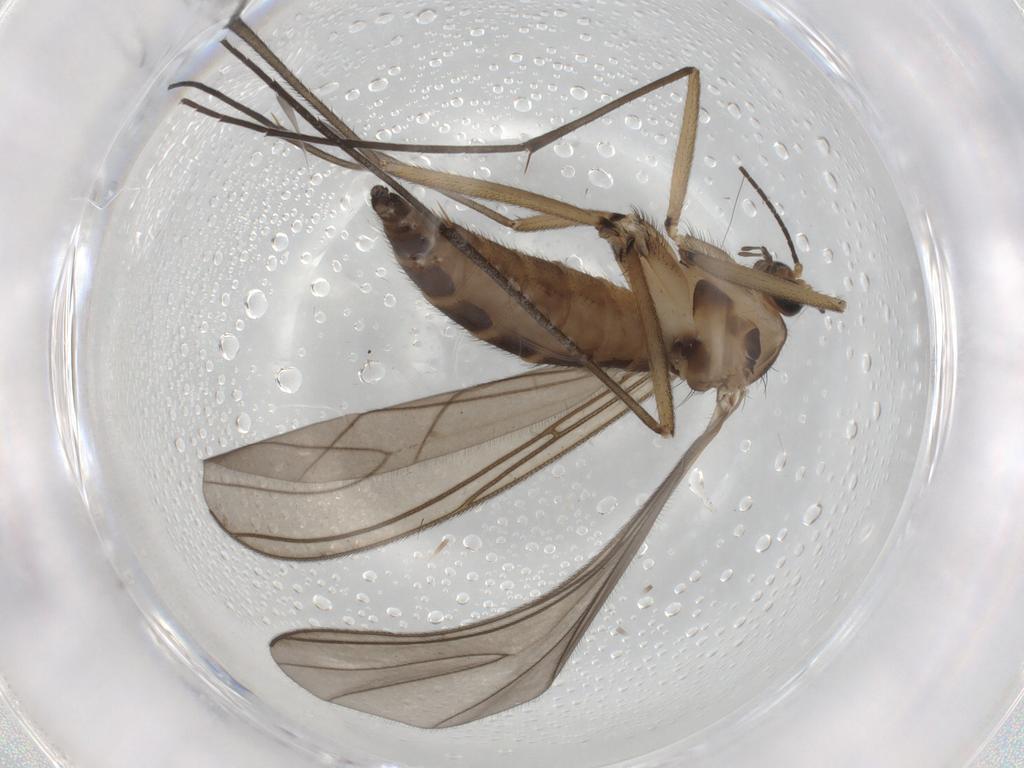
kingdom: Animalia
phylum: Arthropoda
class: Insecta
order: Diptera
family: Sciaridae
